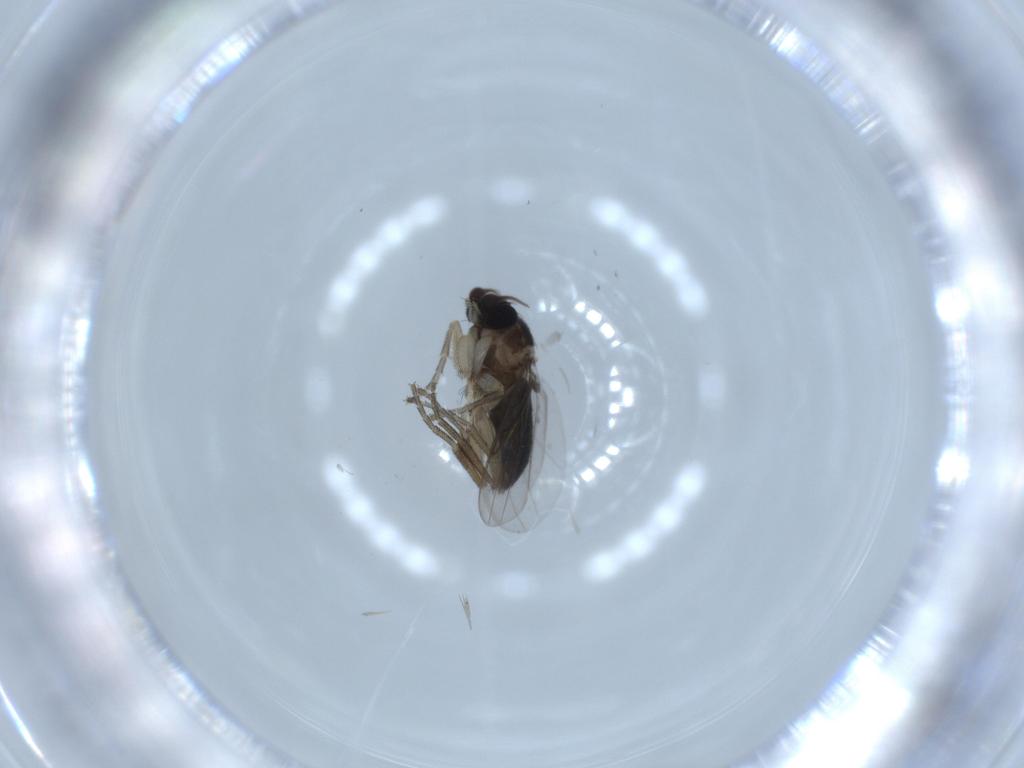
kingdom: Animalia
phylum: Arthropoda
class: Insecta
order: Diptera
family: Phoridae
